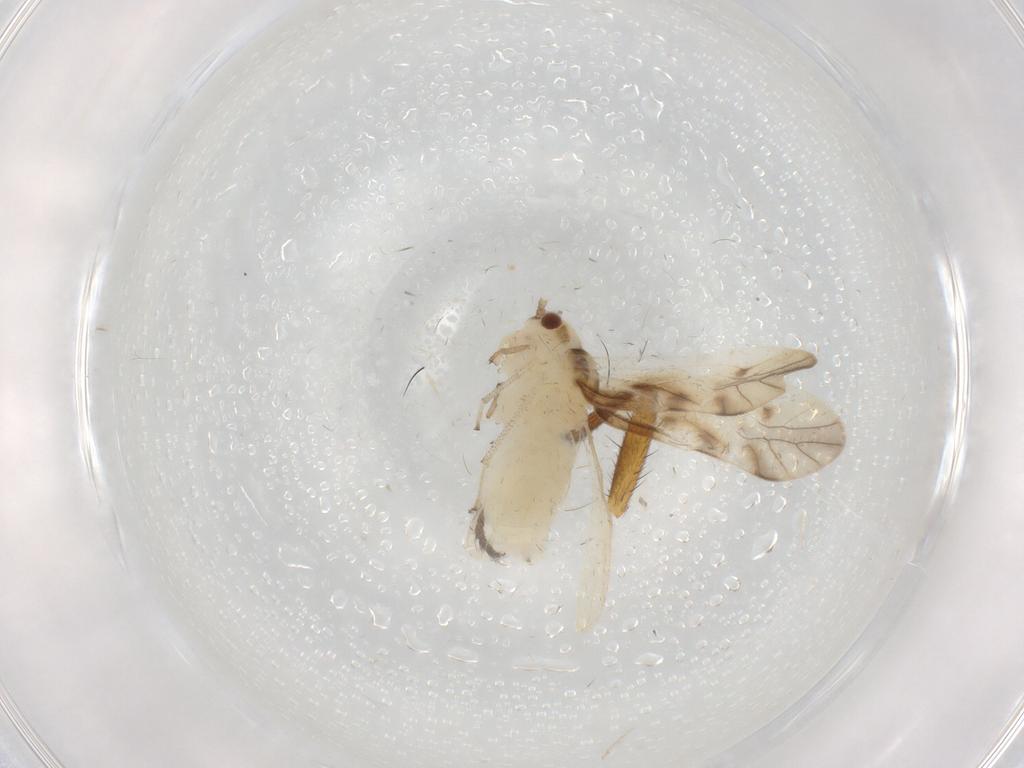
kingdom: Animalia
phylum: Arthropoda
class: Insecta
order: Psocodea
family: Caeciliusidae
